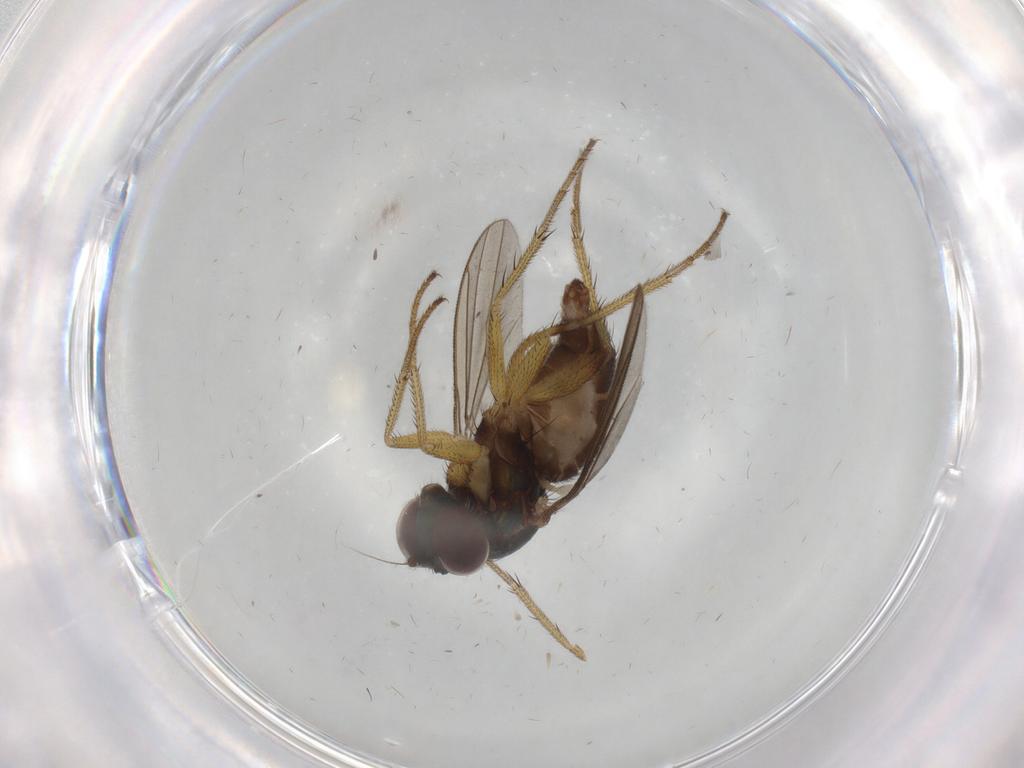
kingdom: Animalia
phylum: Arthropoda
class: Insecta
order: Diptera
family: Dolichopodidae
